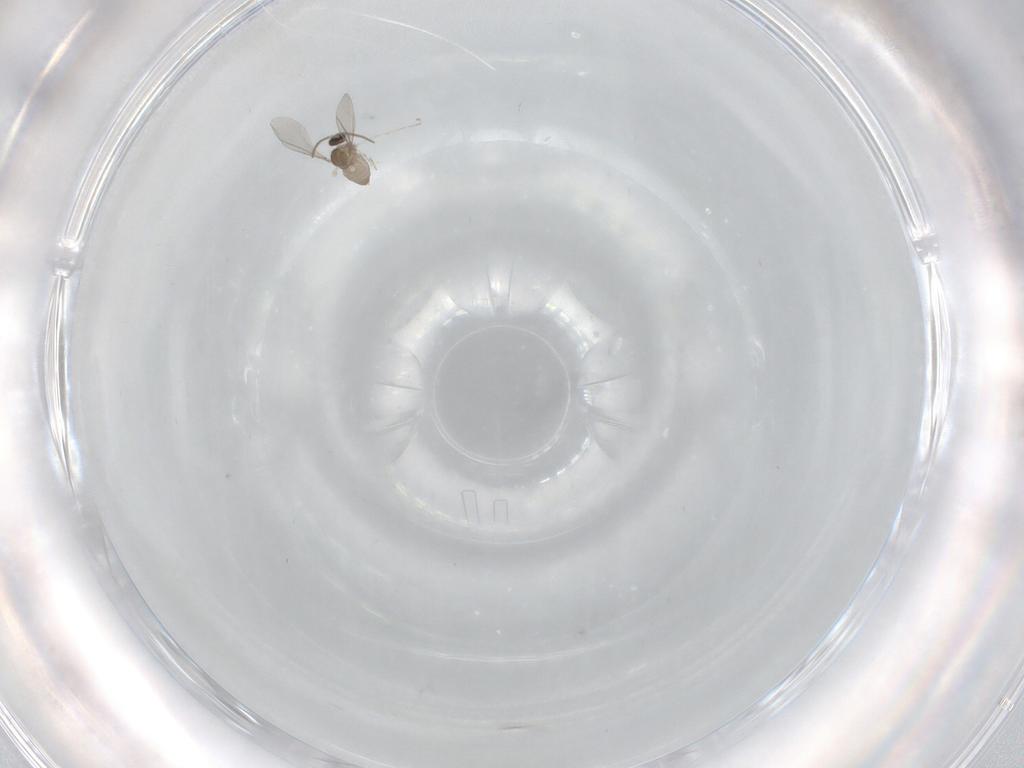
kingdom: Animalia
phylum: Arthropoda
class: Insecta
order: Diptera
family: Cecidomyiidae
